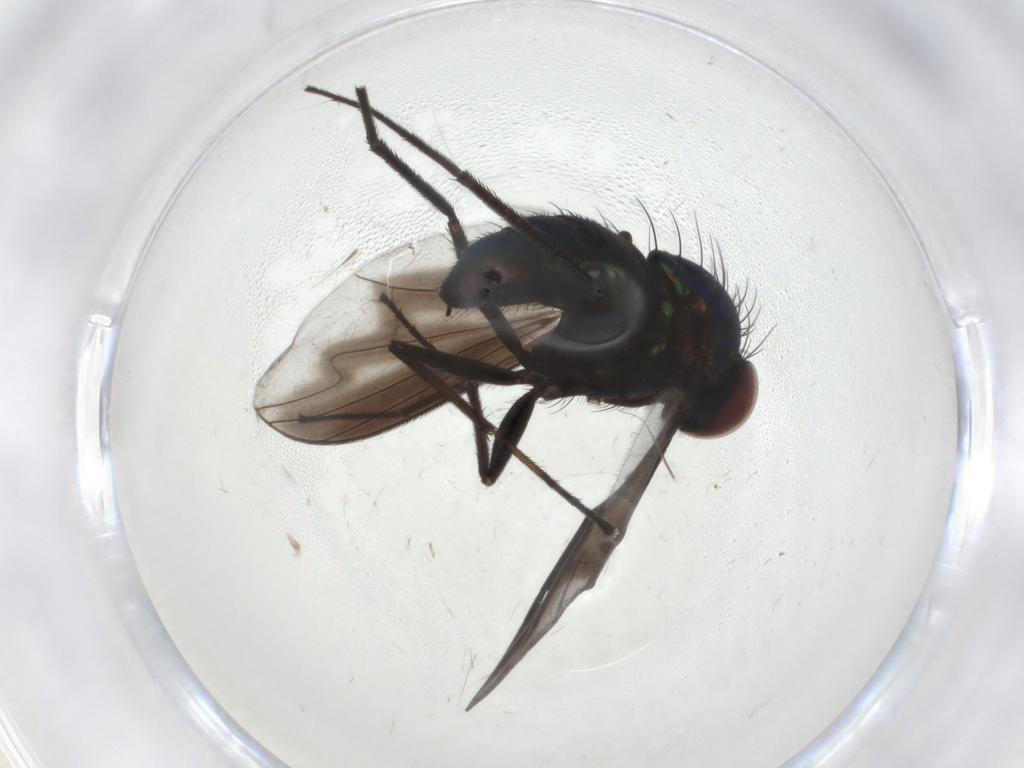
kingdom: Animalia
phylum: Arthropoda
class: Insecta
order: Diptera
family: Dolichopodidae
